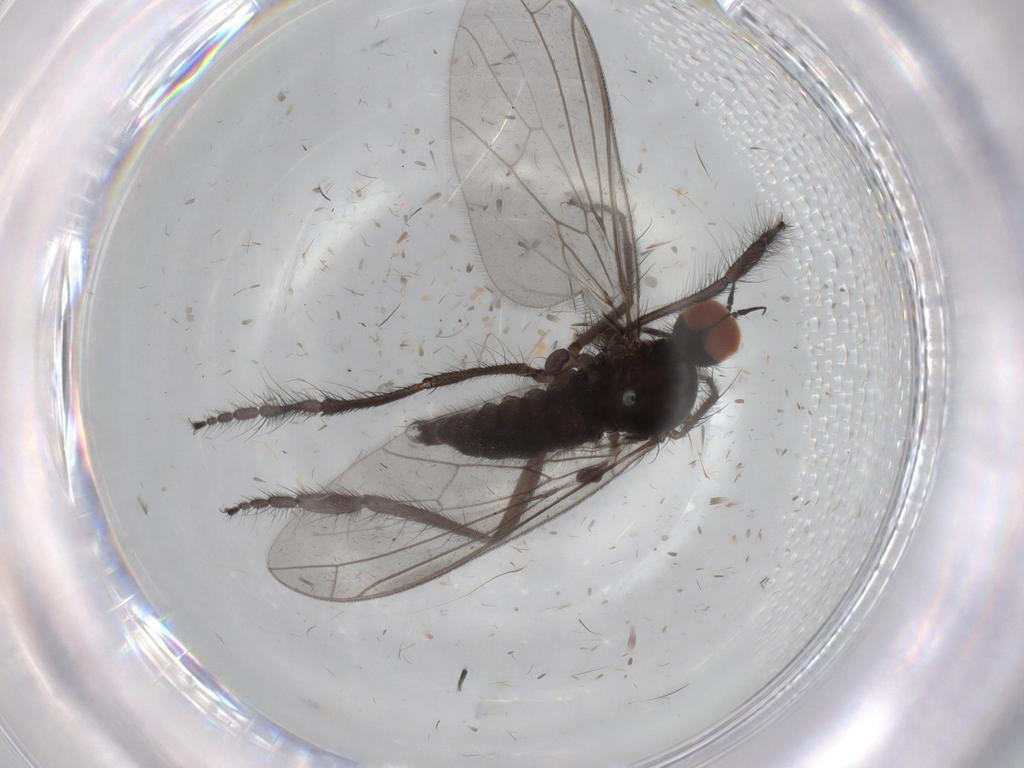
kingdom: Animalia
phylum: Arthropoda
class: Insecta
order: Diptera
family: Empididae
